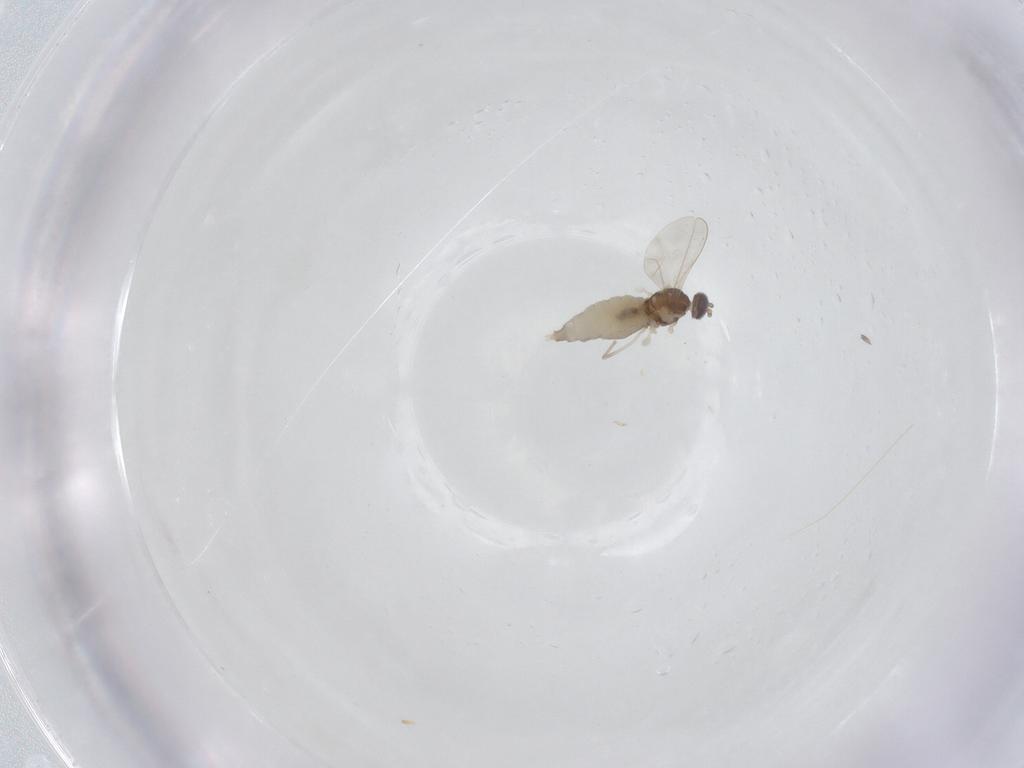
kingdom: Animalia
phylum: Arthropoda
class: Insecta
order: Diptera
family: Cecidomyiidae
